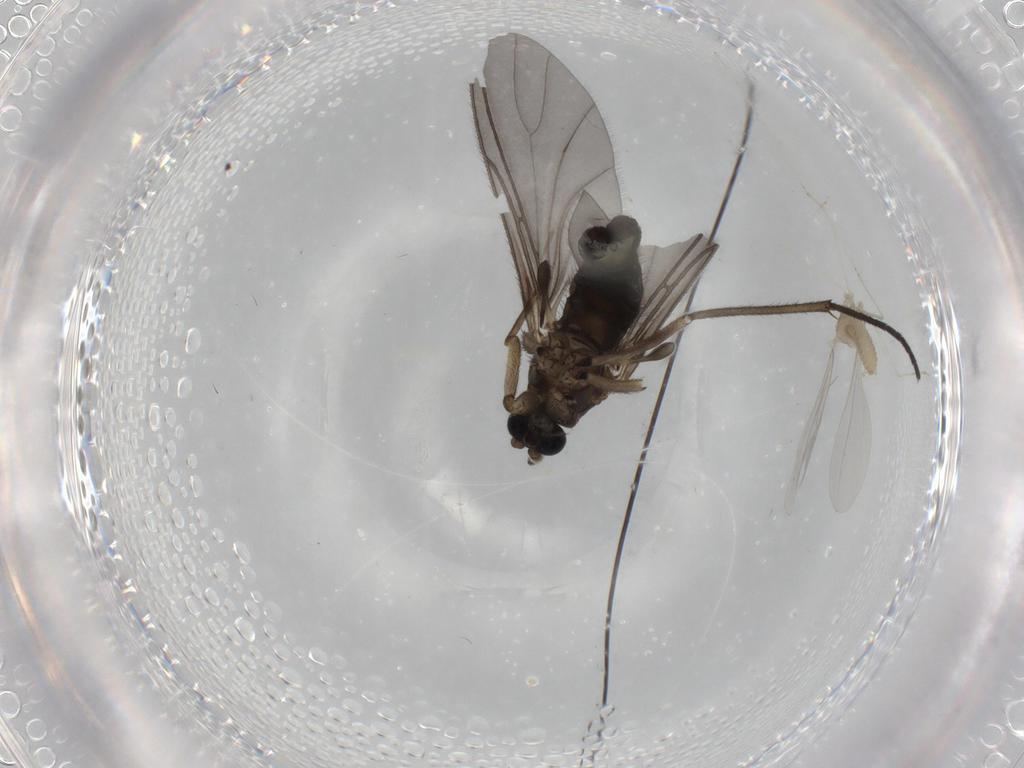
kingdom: Animalia
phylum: Arthropoda
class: Insecta
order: Diptera
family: Sciaridae
